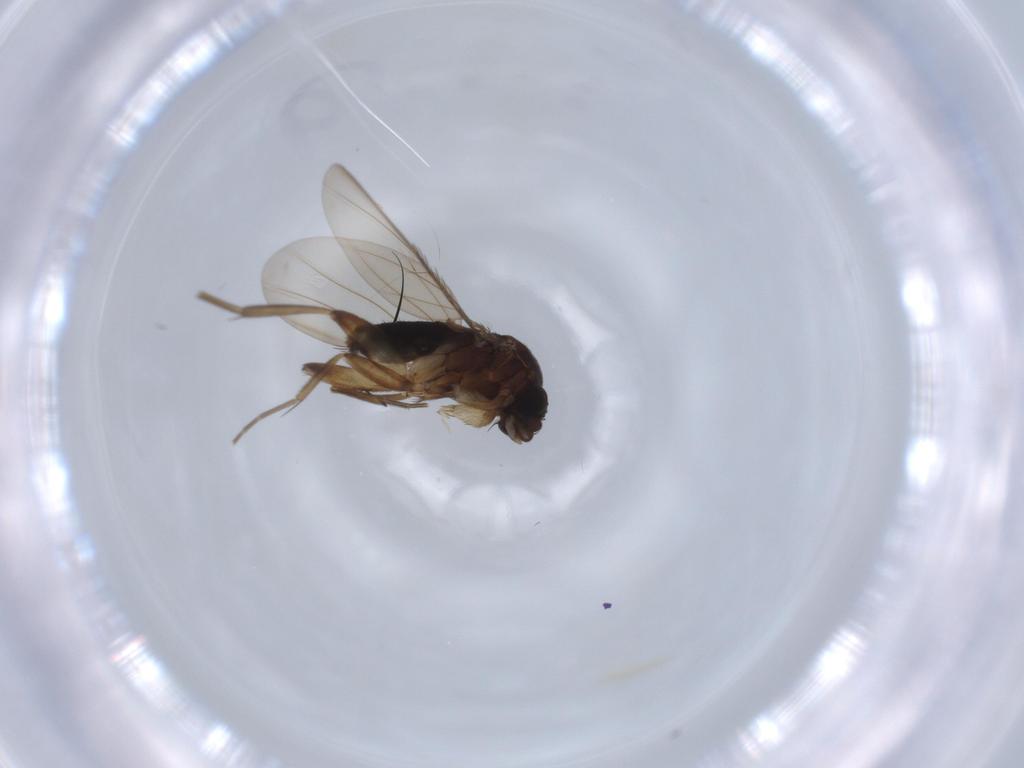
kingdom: Animalia
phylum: Arthropoda
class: Insecta
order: Diptera
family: Phoridae
